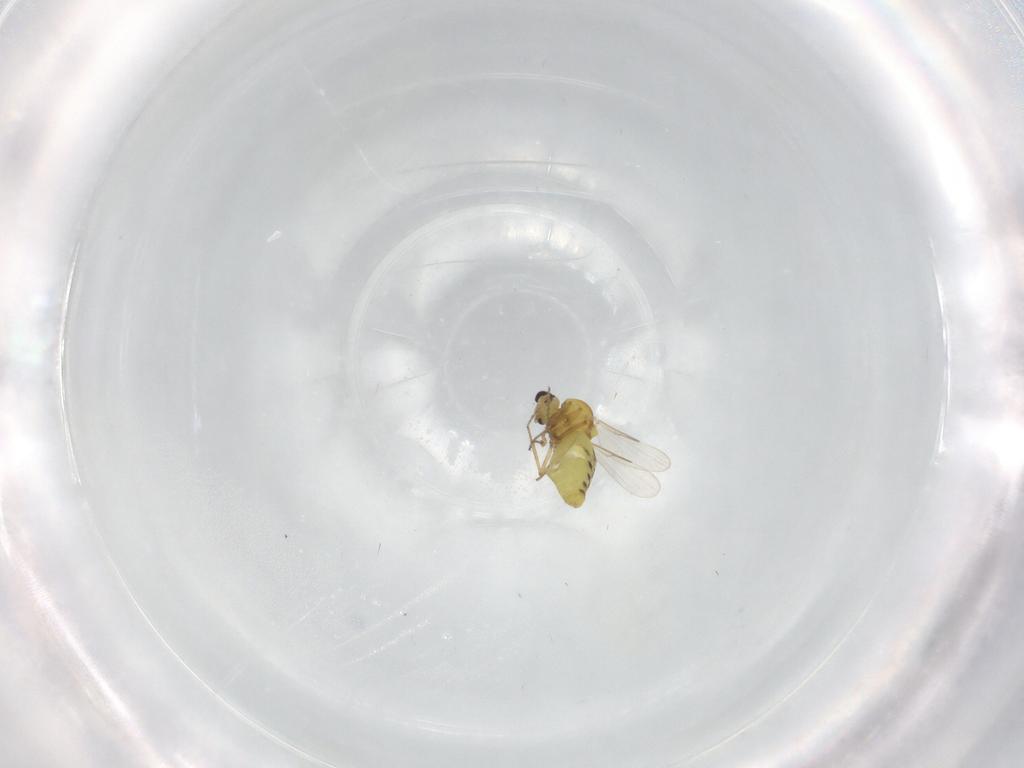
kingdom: Animalia
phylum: Arthropoda
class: Insecta
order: Diptera
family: Ceratopogonidae
